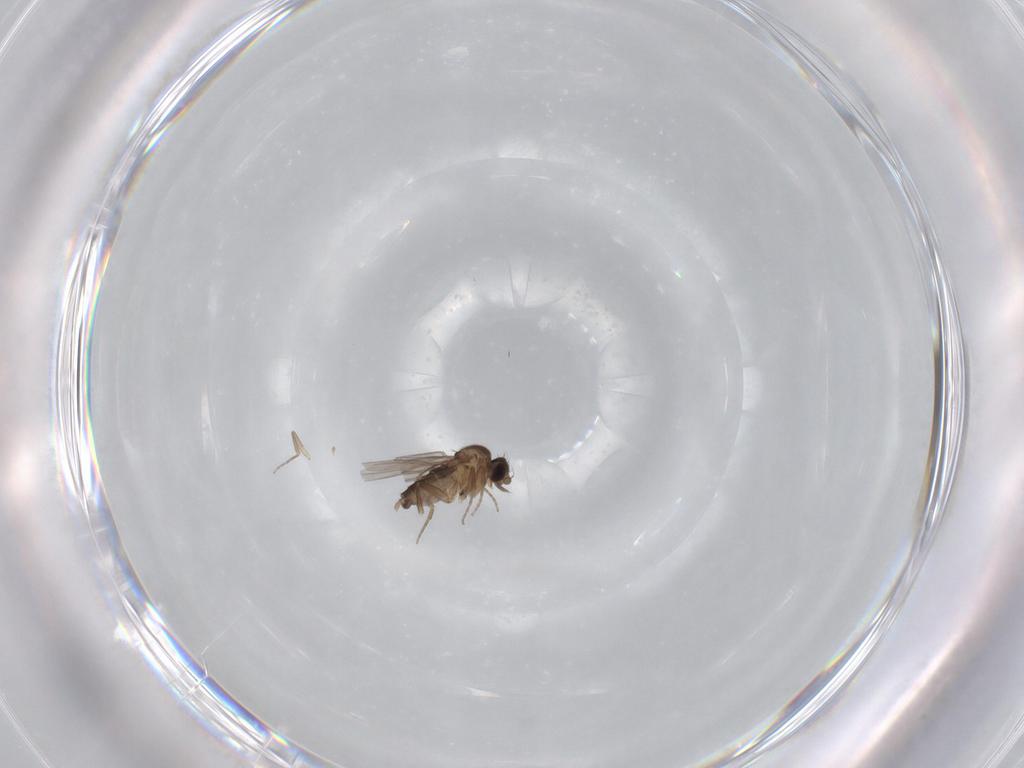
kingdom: Animalia
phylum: Arthropoda
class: Insecta
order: Diptera
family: Phoridae
